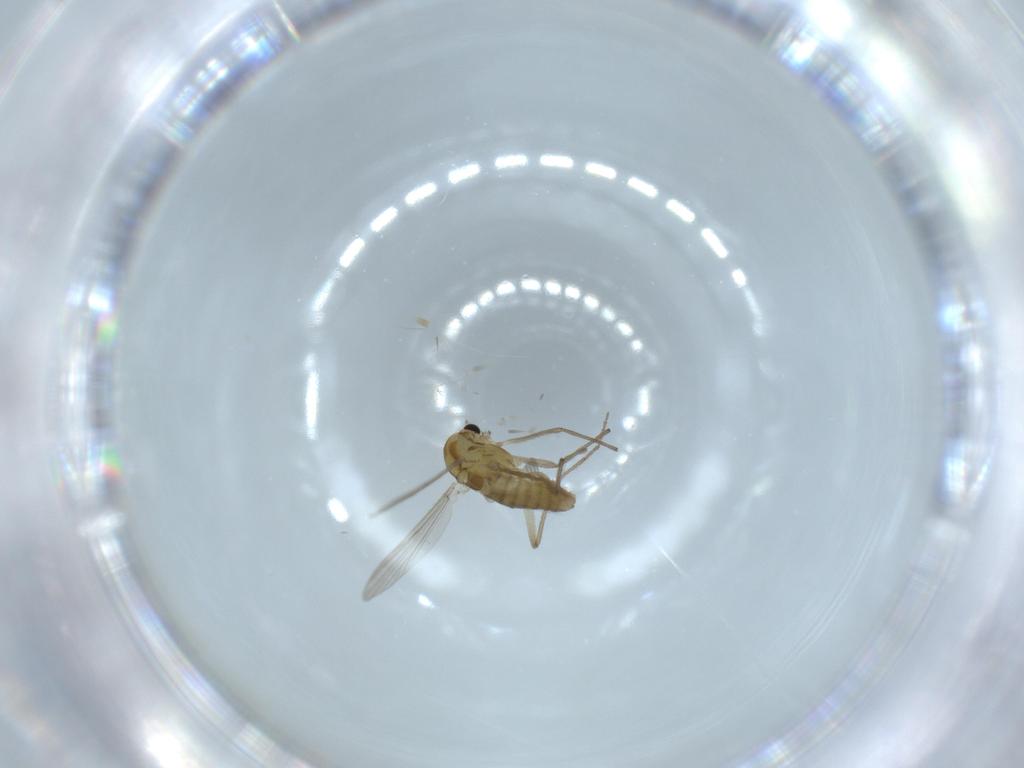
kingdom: Animalia
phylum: Arthropoda
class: Insecta
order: Diptera
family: Chironomidae
